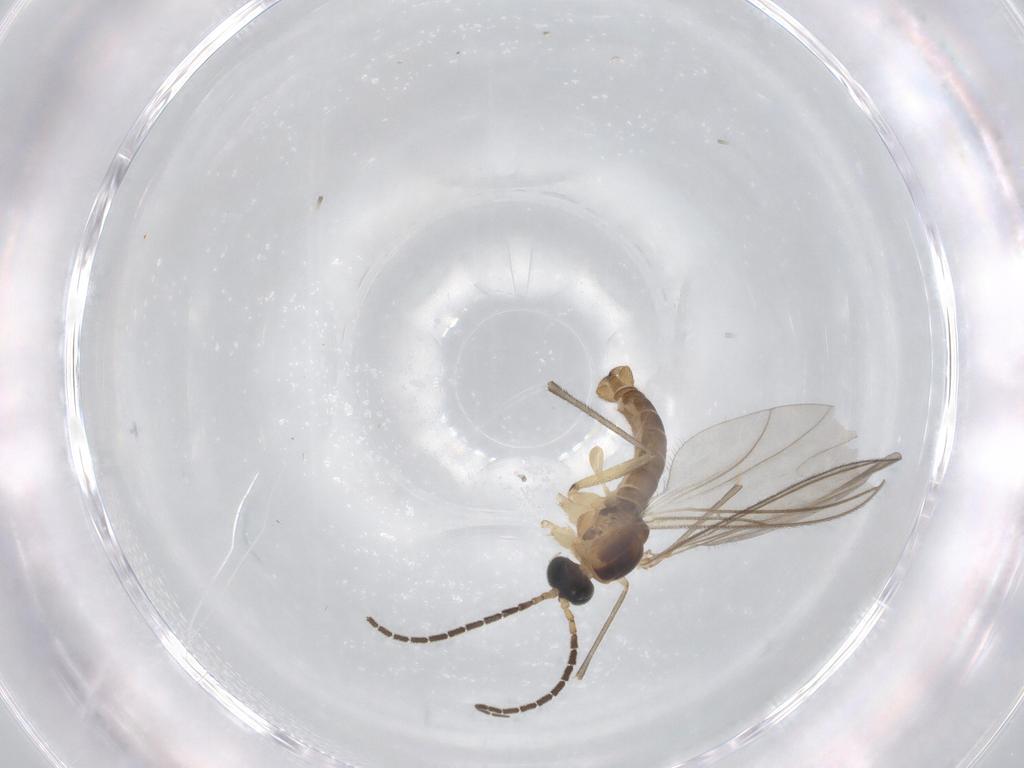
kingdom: Animalia
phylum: Arthropoda
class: Insecta
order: Diptera
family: Sciaridae
